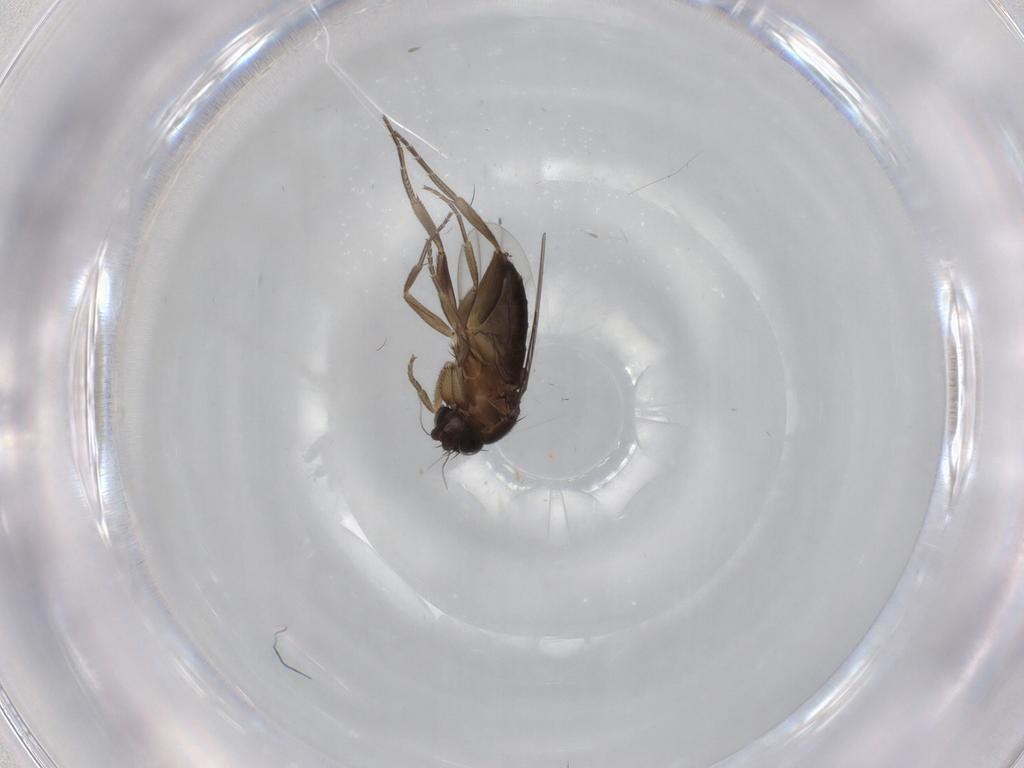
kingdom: Animalia
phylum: Arthropoda
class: Insecta
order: Diptera
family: Phoridae
